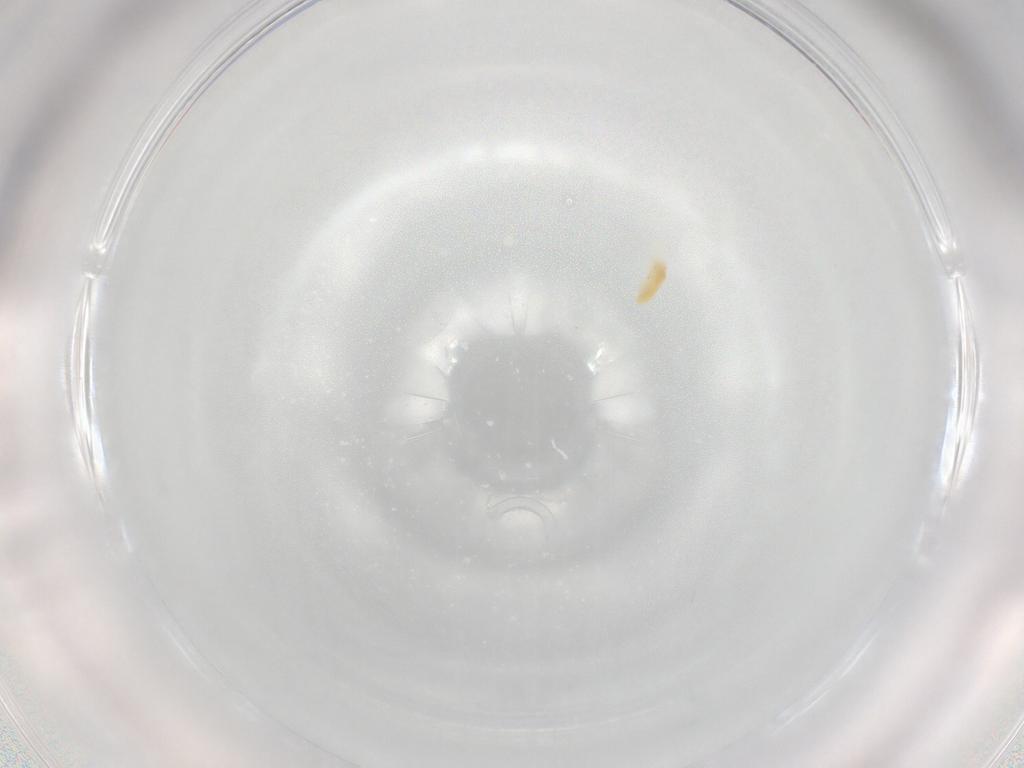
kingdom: Animalia
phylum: Arthropoda
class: Arachnida
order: Trombidiformes
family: Eupodidae
